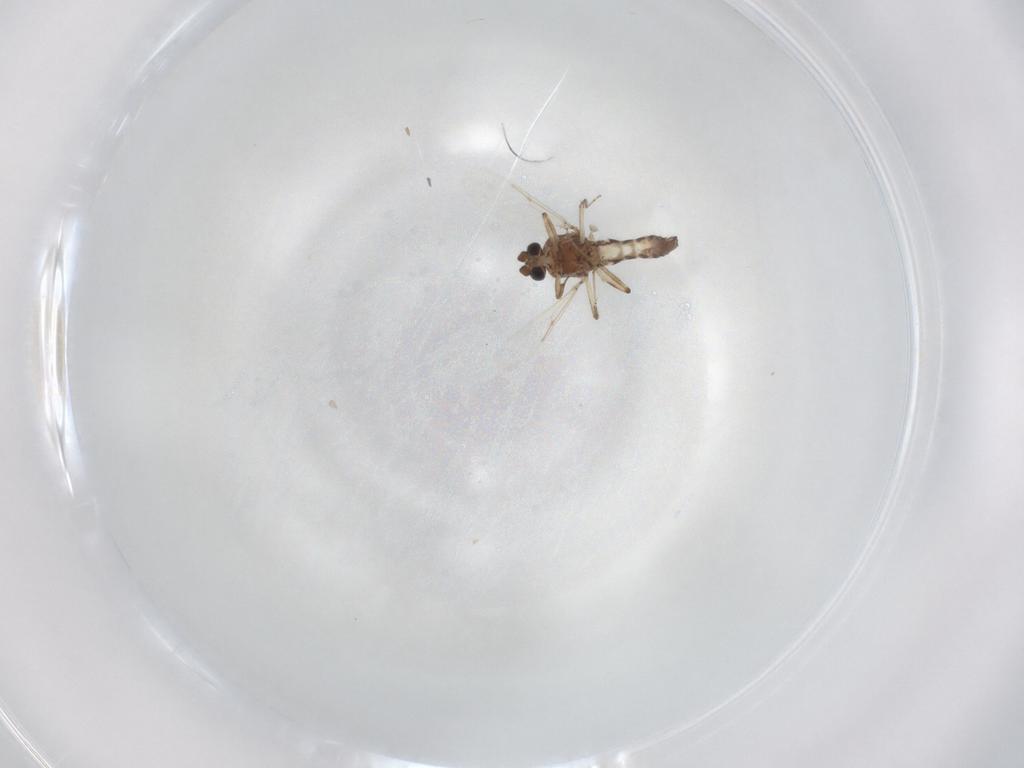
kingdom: Animalia
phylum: Arthropoda
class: Insecta
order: Diptera
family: Ceratopogonidae
